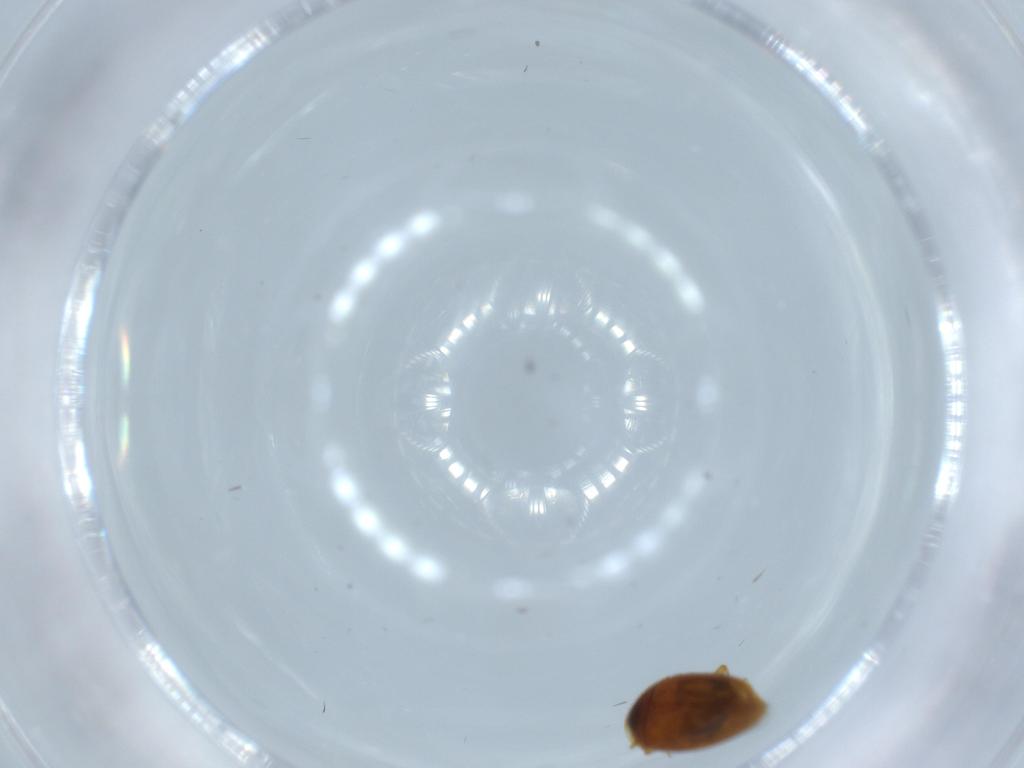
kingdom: Animalia
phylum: Arthropoda
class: Insecta
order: Coleoptera
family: Corylophidae
